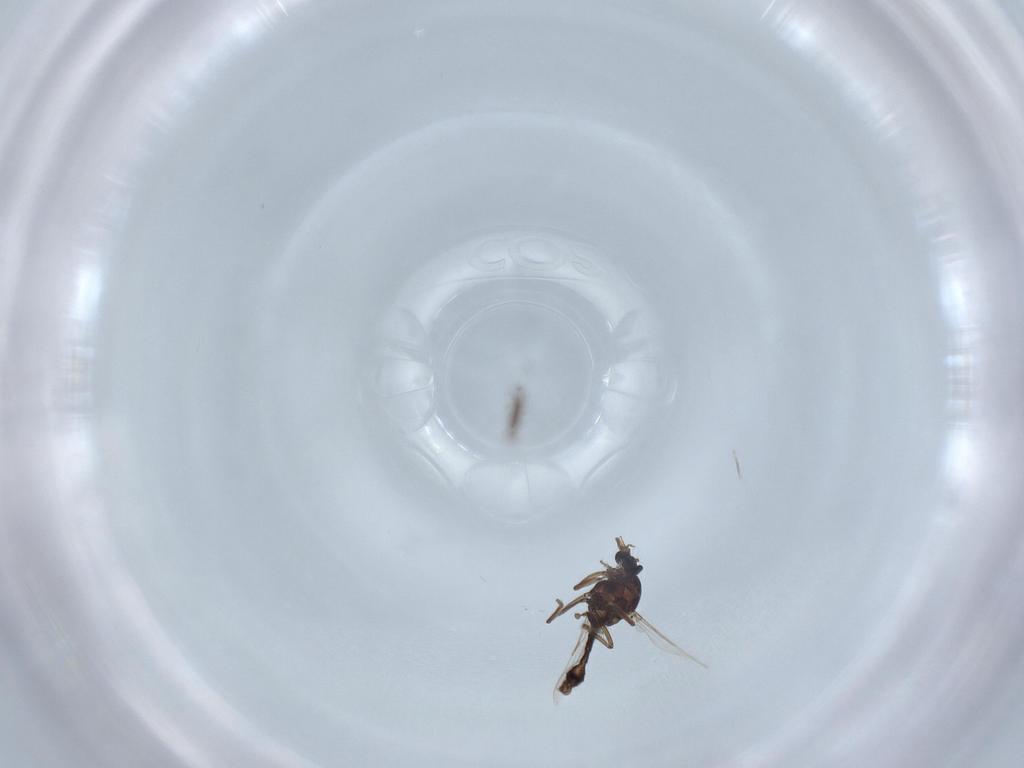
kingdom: Animalia
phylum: Arthropoda
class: Insecta
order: Diptera
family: Ceratopogonidae
